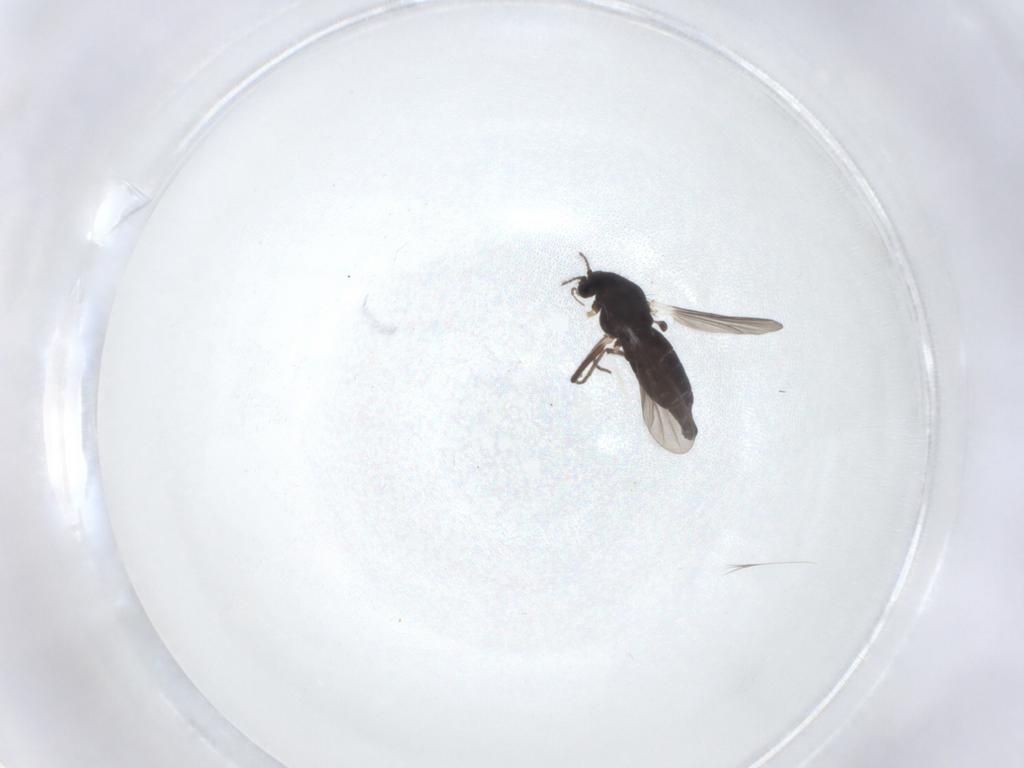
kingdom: Animalia
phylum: Arthropoda
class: Insecta
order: Diptera
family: Chironomidae
